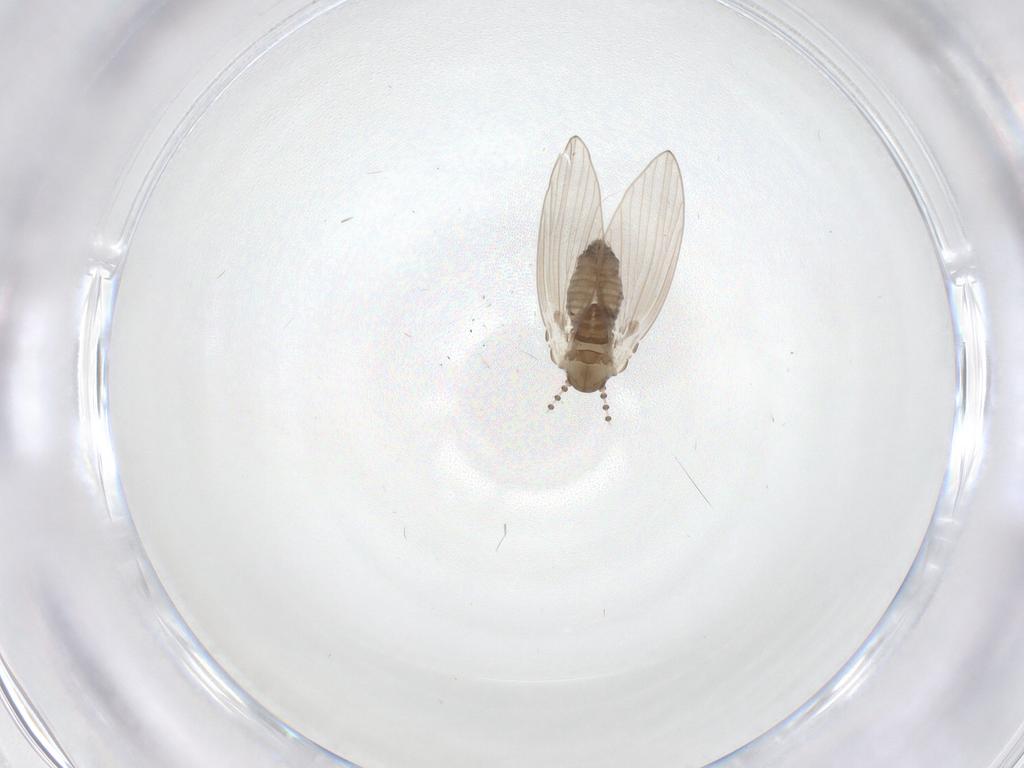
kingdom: Animalia
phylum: Arthropoda
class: Insecta
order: Diptera
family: Psychodidae
